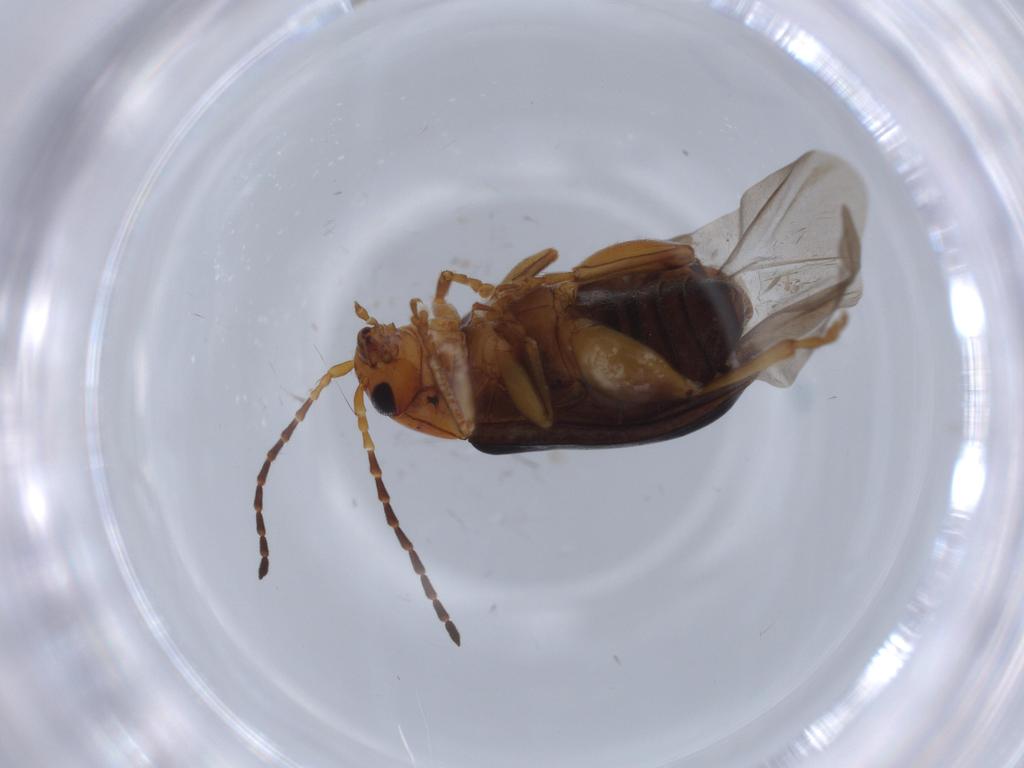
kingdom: Animalia
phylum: Arthropoda
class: Insecta
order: Coleoptera
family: Chrysomelidae
